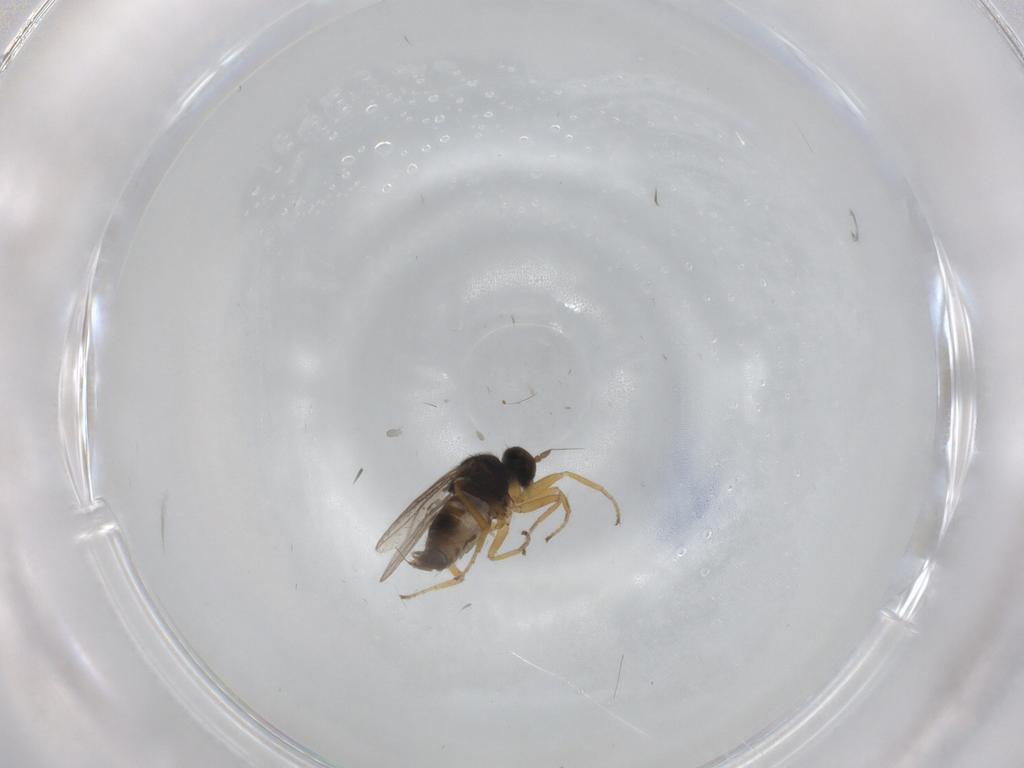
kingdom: Animalia
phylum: Arthropoda
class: Insecta
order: Diptera
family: Hybotidae
